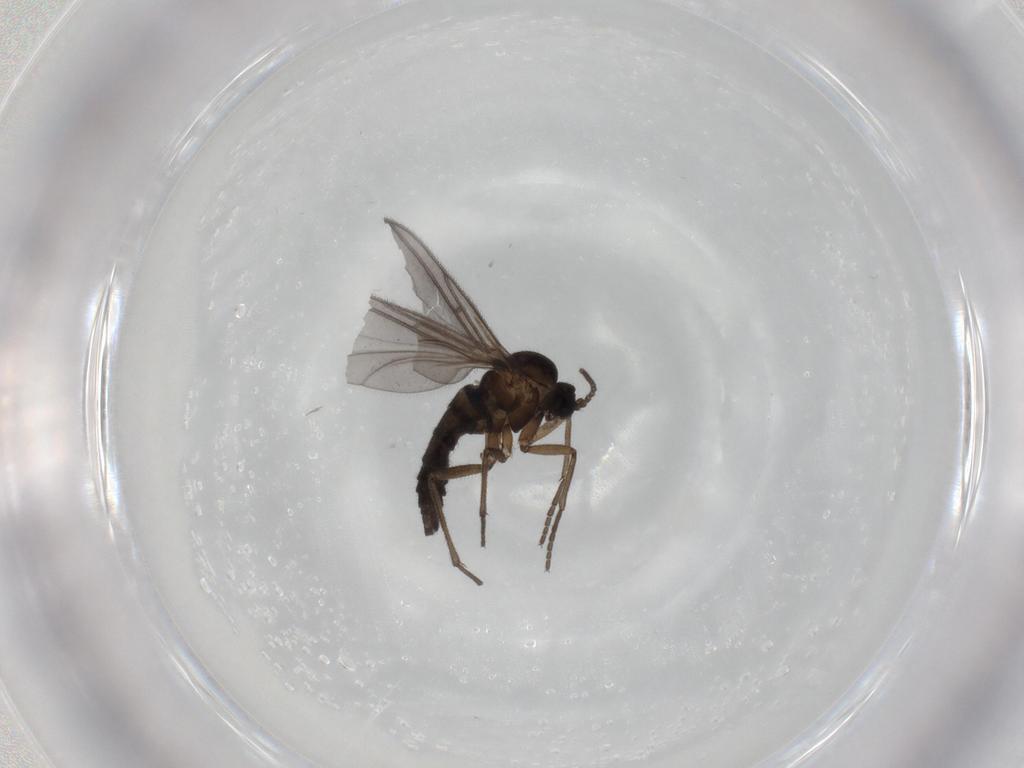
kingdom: Animalia
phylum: Arthropoda
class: Insecta
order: Diptera
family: Sciaridae
